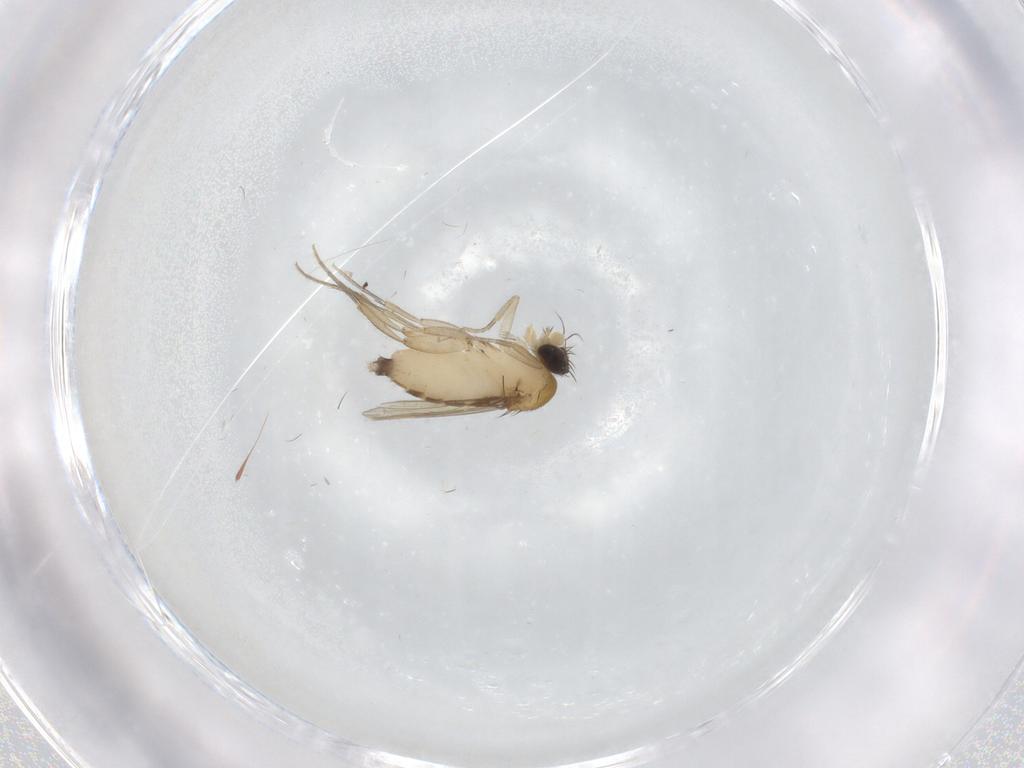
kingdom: Animalia
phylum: Arthropoda
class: Insecta
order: Diptera
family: Phoridae
